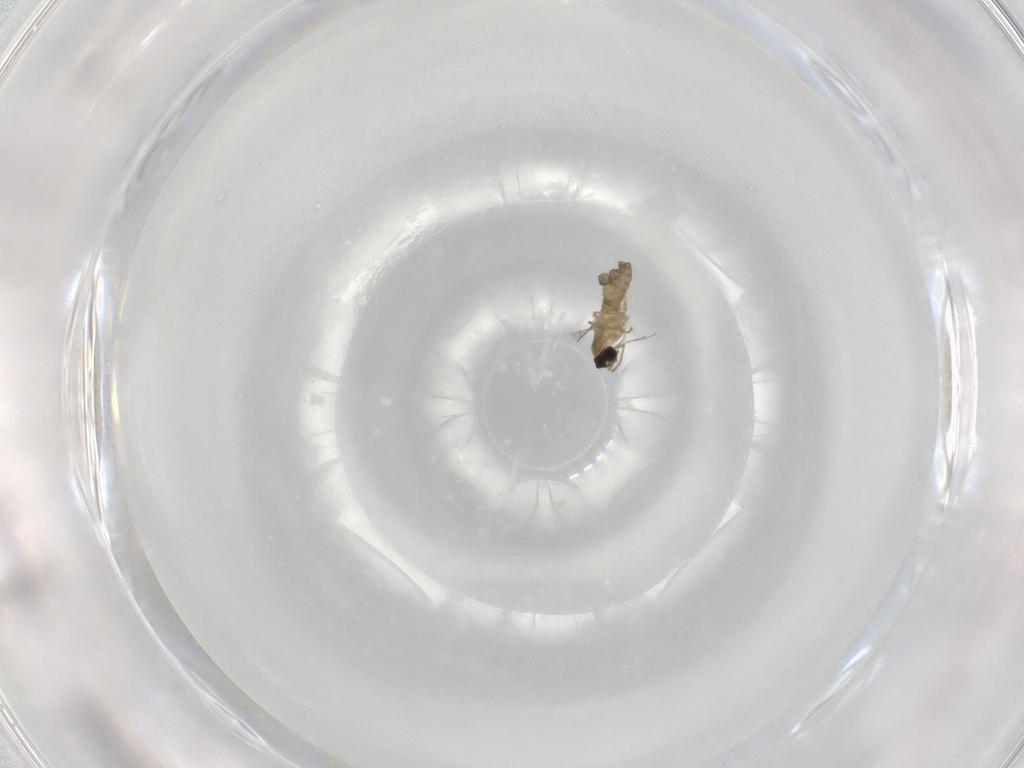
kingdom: Animalia
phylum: Arthropoda
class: Insecta
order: Diptera
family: Cecidomyiidae
